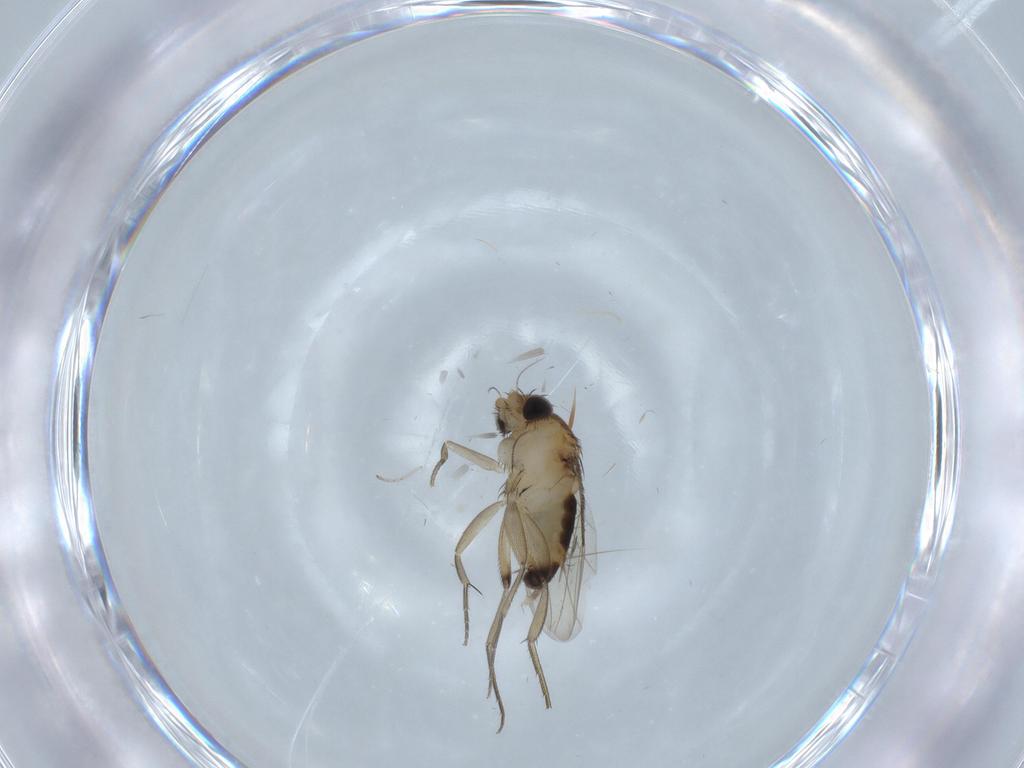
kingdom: Animalia
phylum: Arthropoda
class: Insecta
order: Diptera
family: Phoridae
